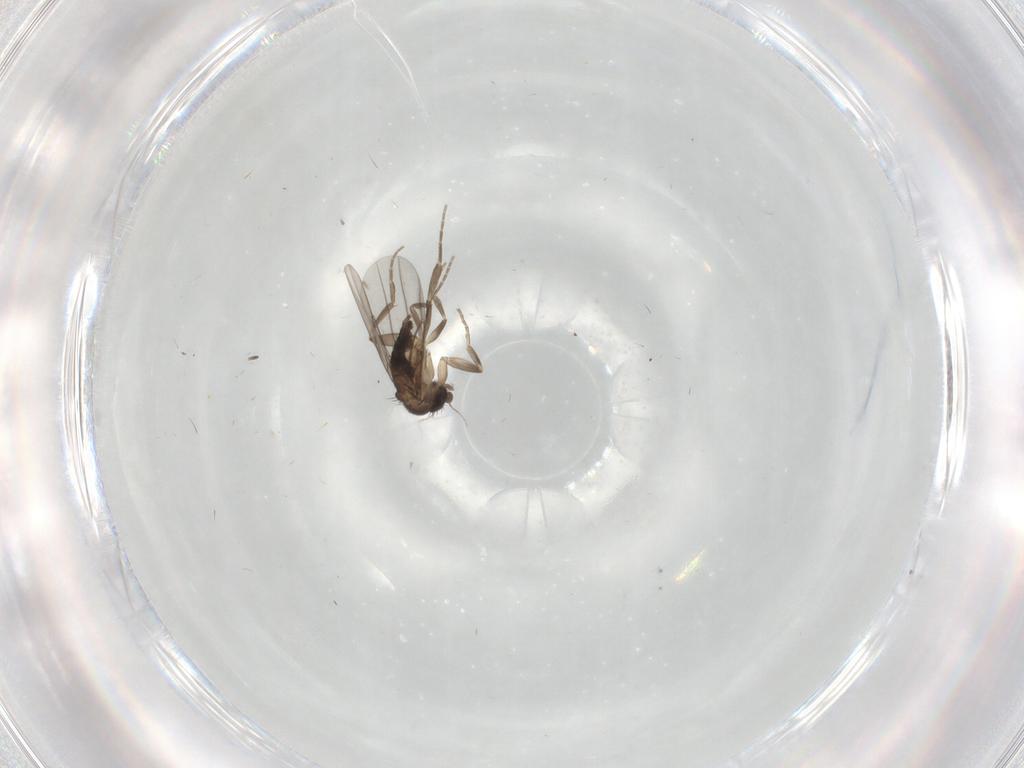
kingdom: Animalia
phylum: Arthropoda
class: Insecta
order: Diptera
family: Phoridae
